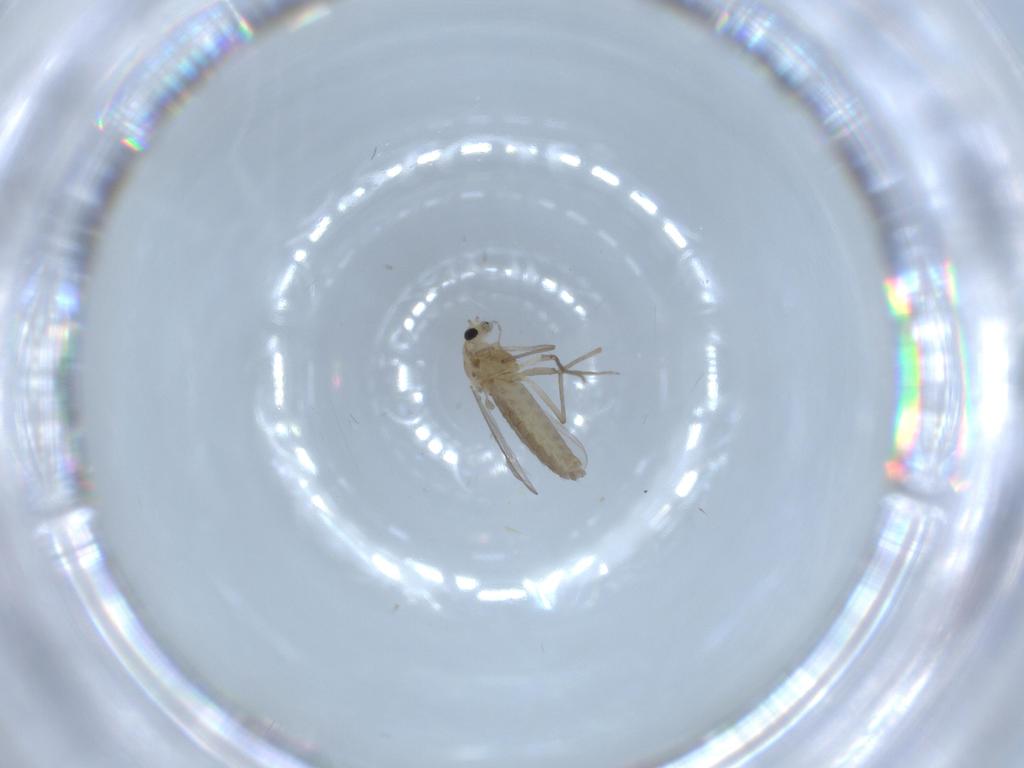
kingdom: Animalia
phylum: Arthropoda
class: Insecta
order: Diptera
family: Chironomidae
